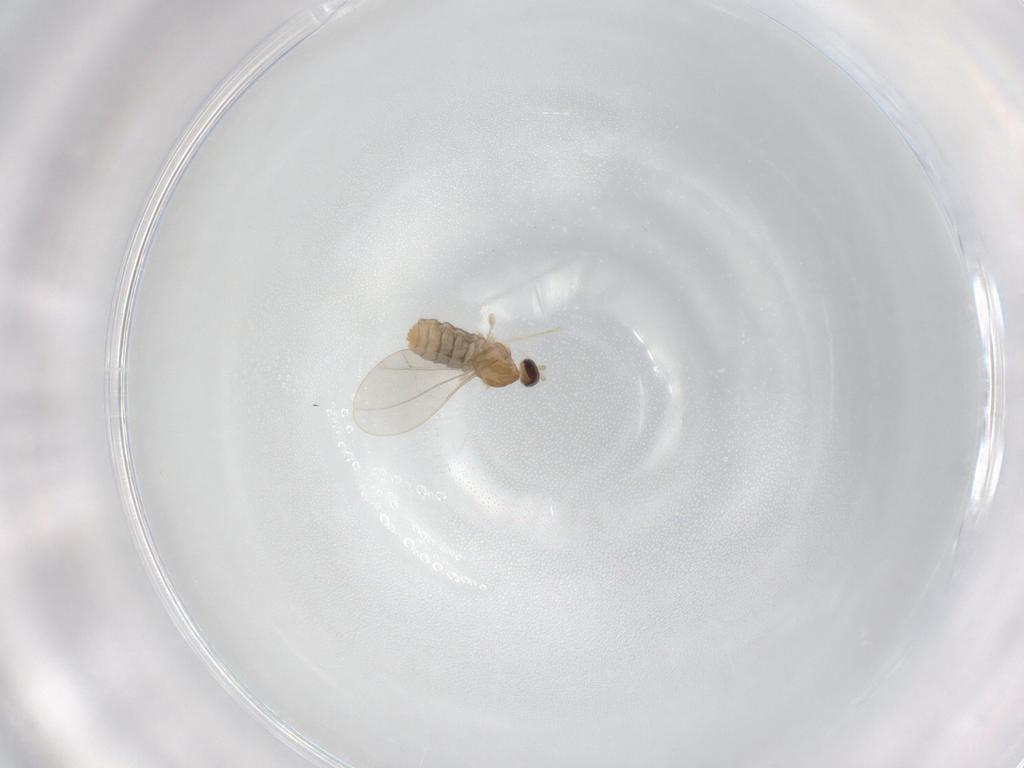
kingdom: Animalia
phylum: Arthropoda
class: Insecta
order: Diptera
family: Cecidomyiidae
